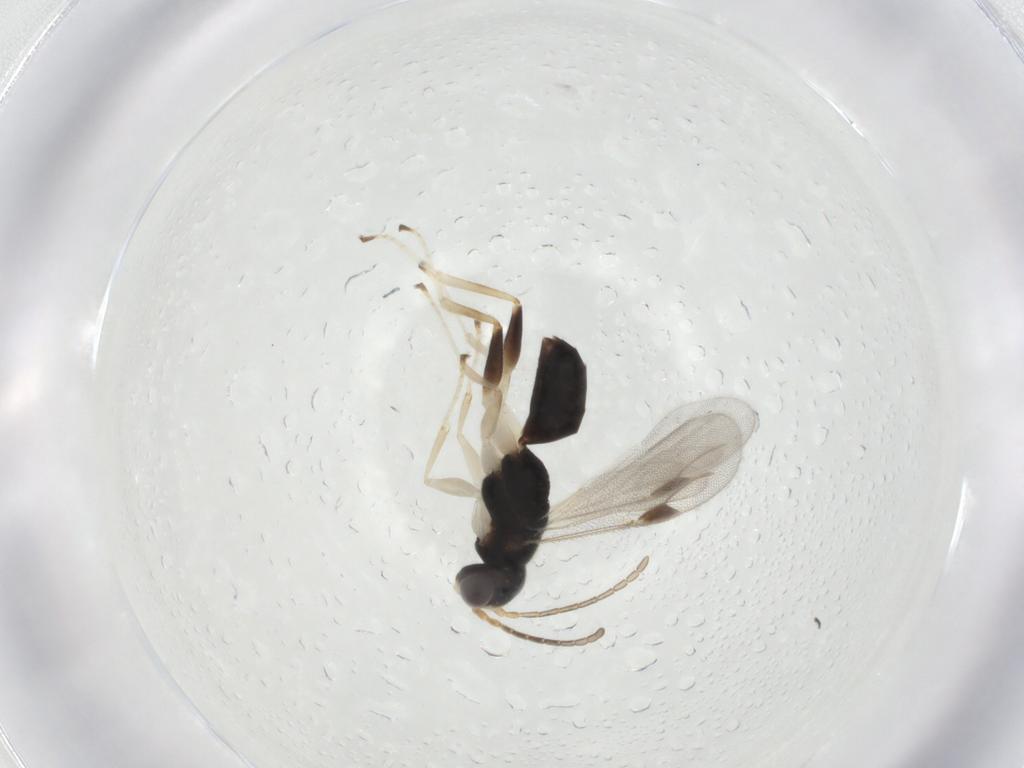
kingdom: Animalia
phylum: Arthropoda
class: Insecta
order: Hymenoptera
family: Dryinidae
